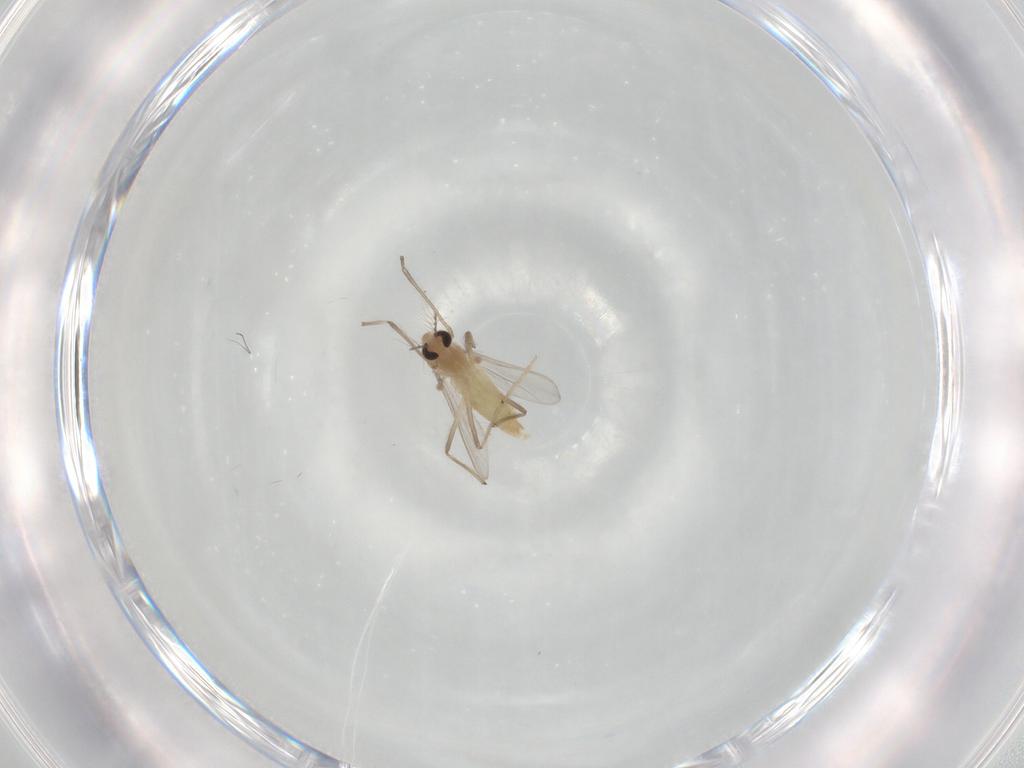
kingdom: Animalia
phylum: Arthropoda
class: Insecta
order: Diptera
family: Chironomidae
